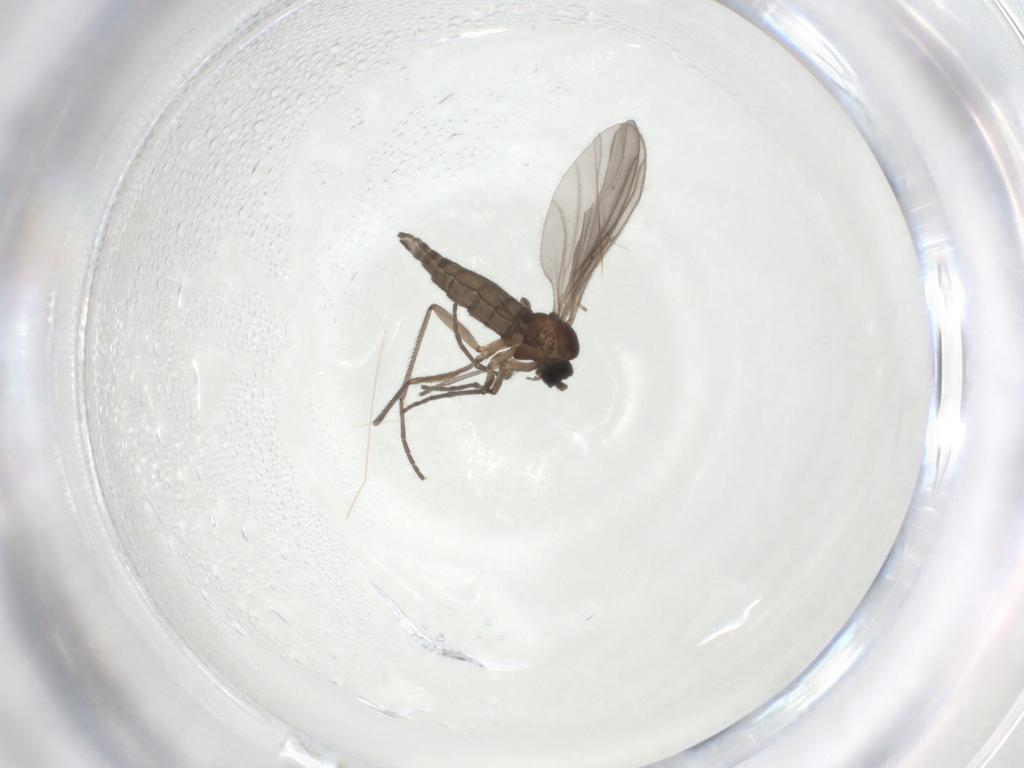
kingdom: Animalia
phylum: Arthropoda
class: Insecta
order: Diptera
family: Sciaridae
